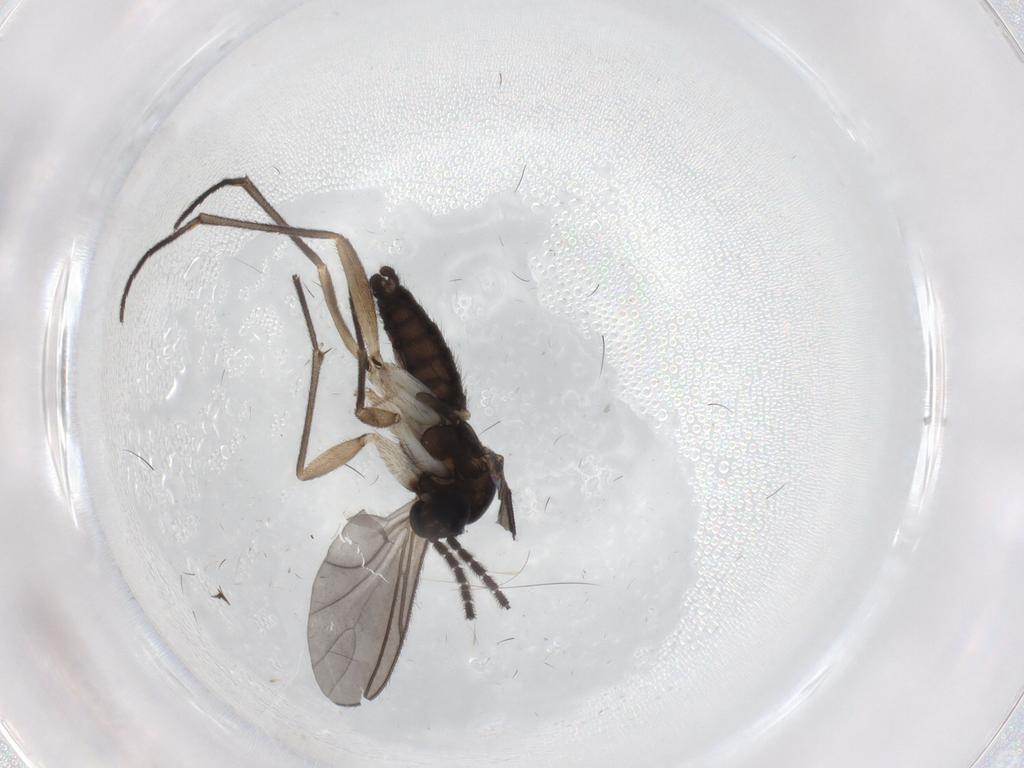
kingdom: Animalia
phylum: Arthropoda
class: Insecta
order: Diptera
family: Sciaridae
